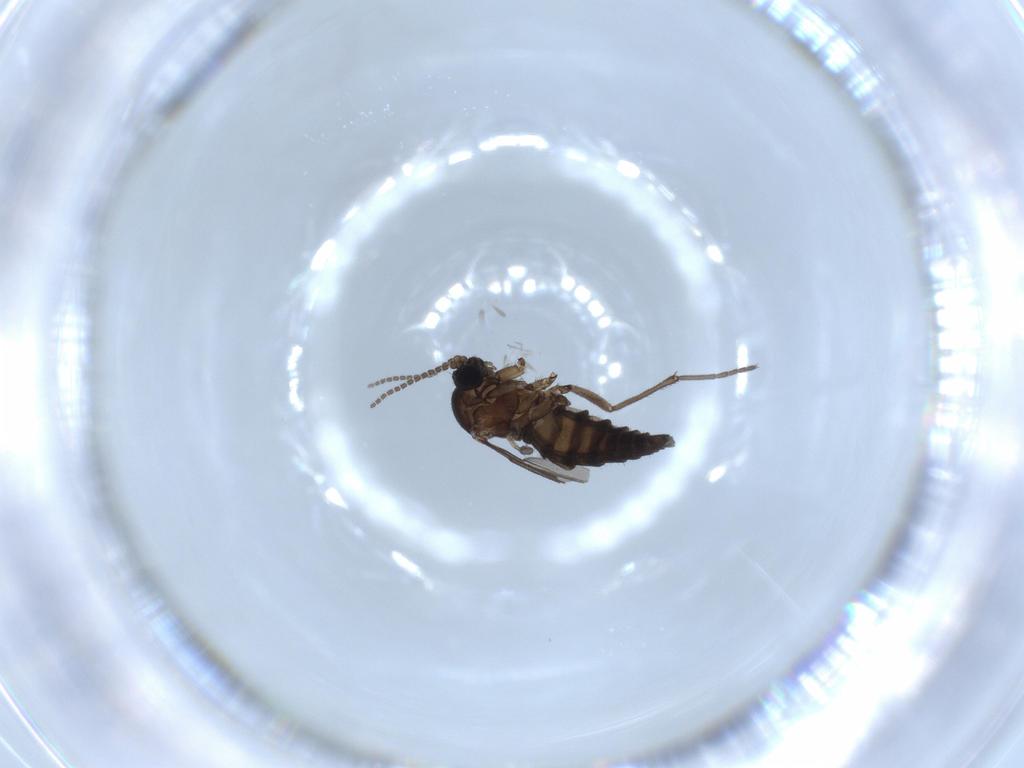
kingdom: Animalia
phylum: Arthropoda
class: Insecta
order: Diptera
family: Sciaridae
